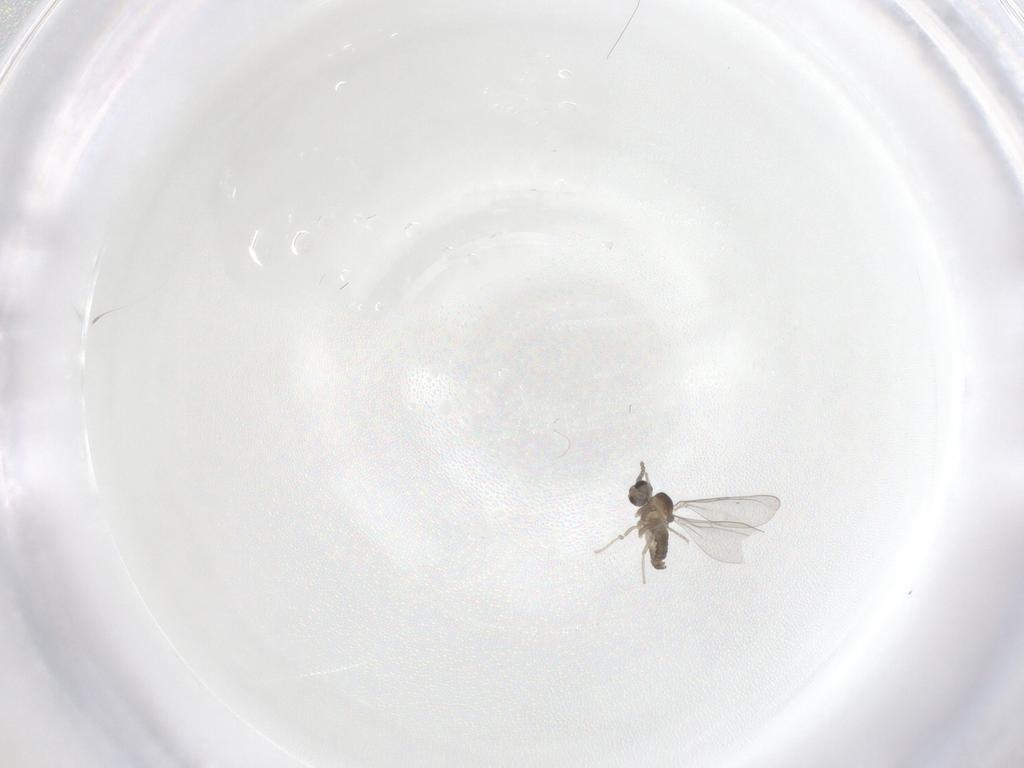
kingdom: Animalia
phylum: Arthropoda
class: Insecta
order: Diptera
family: Cecidomyiidae
